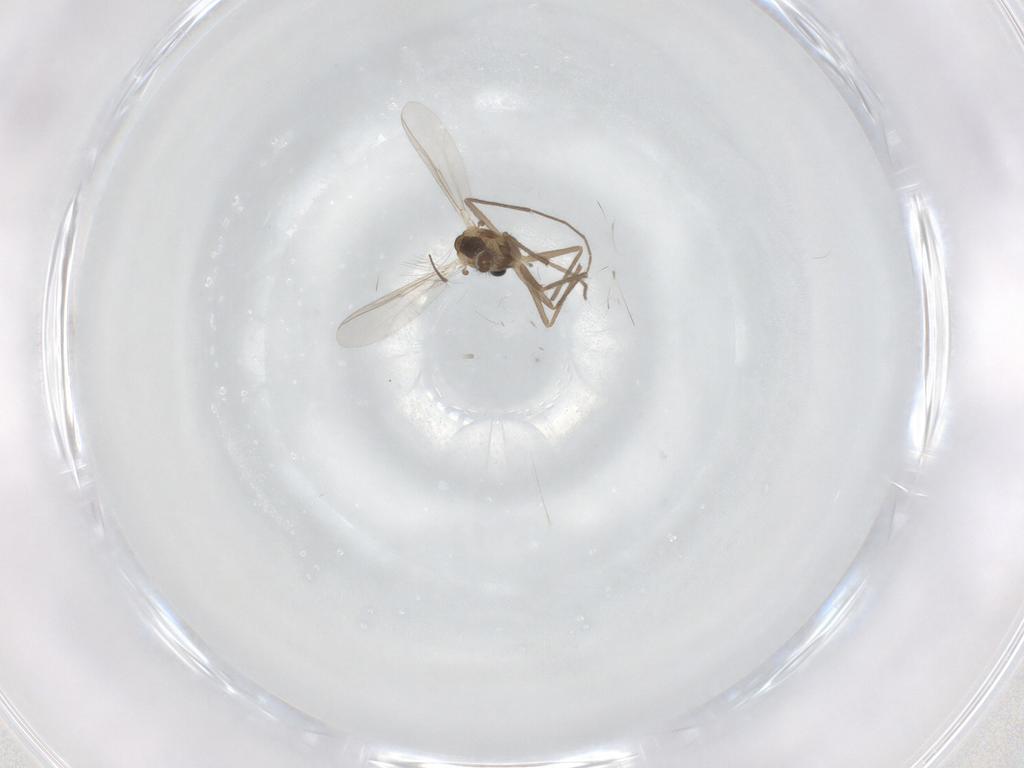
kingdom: Animalia
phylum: Arthropoda
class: Insecta
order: Diptera
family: Chironomidae
